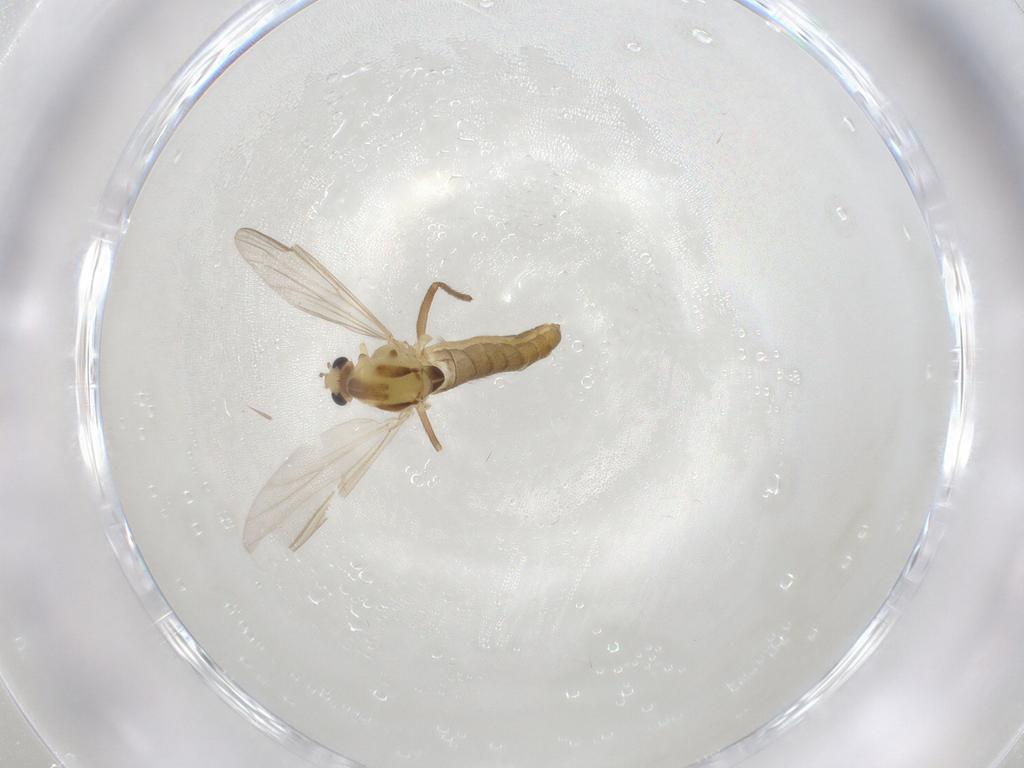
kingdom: Animalia
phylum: Arthropoda
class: Insecta
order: Diptera
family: Chironomidae
